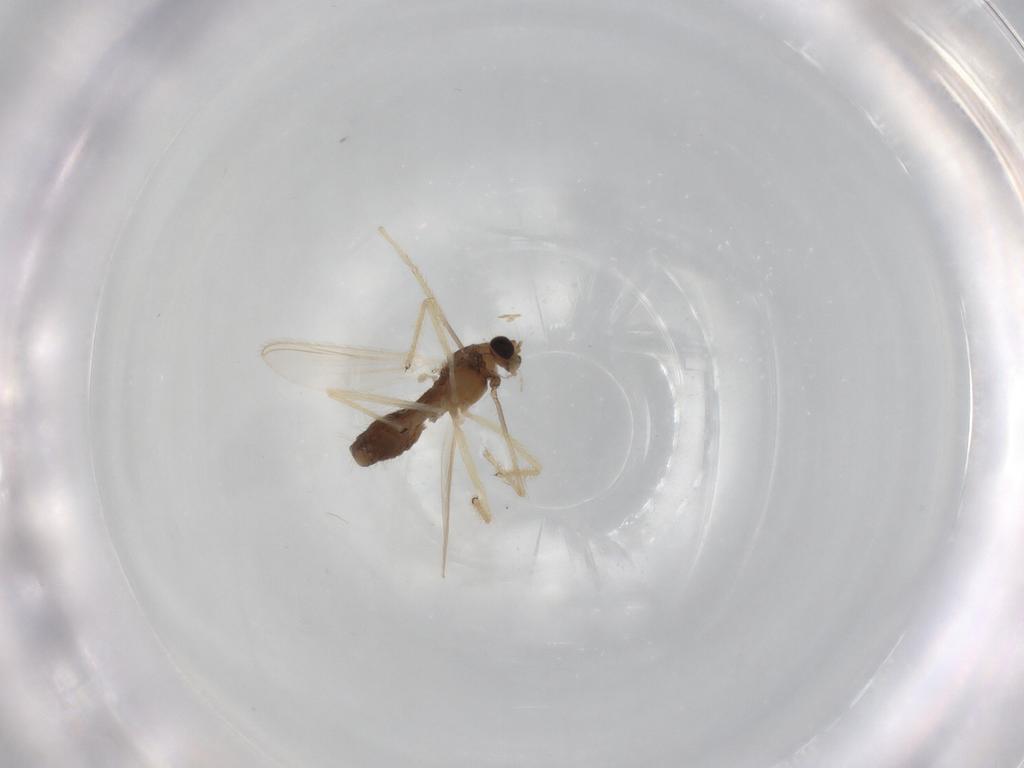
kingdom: Animalia
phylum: Arthropoda
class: Insecta
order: Diptera
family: Chironomidae
